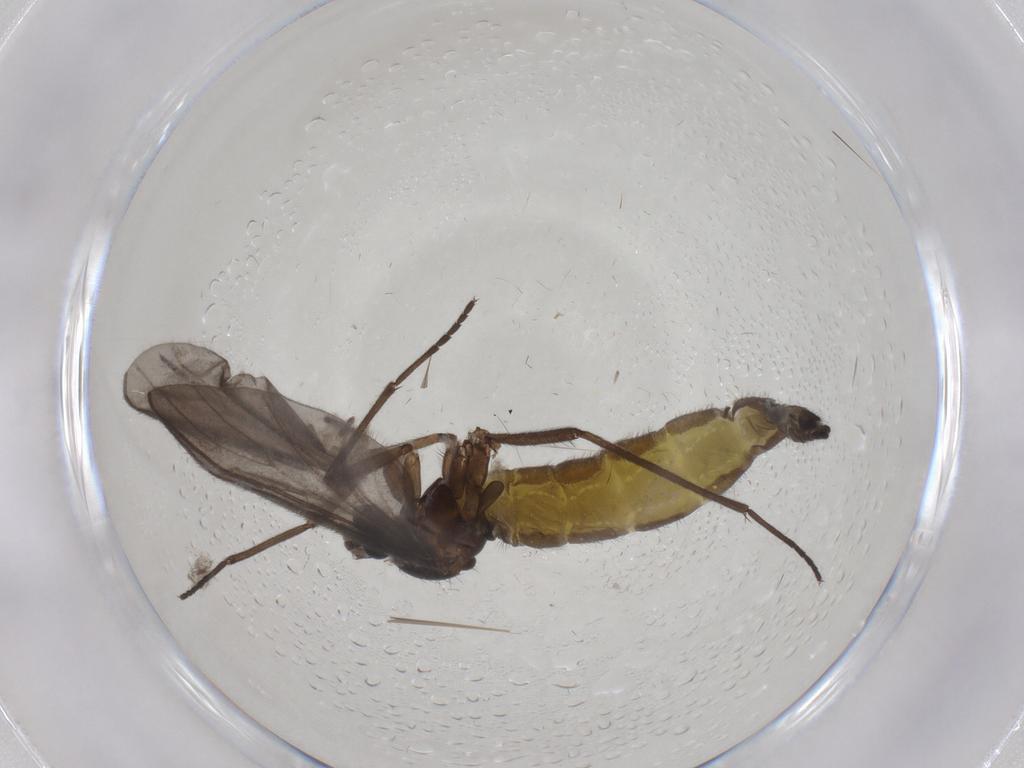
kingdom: Animalia
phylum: Arthropoda
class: Insecta
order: Diptera
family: Sciaridae
